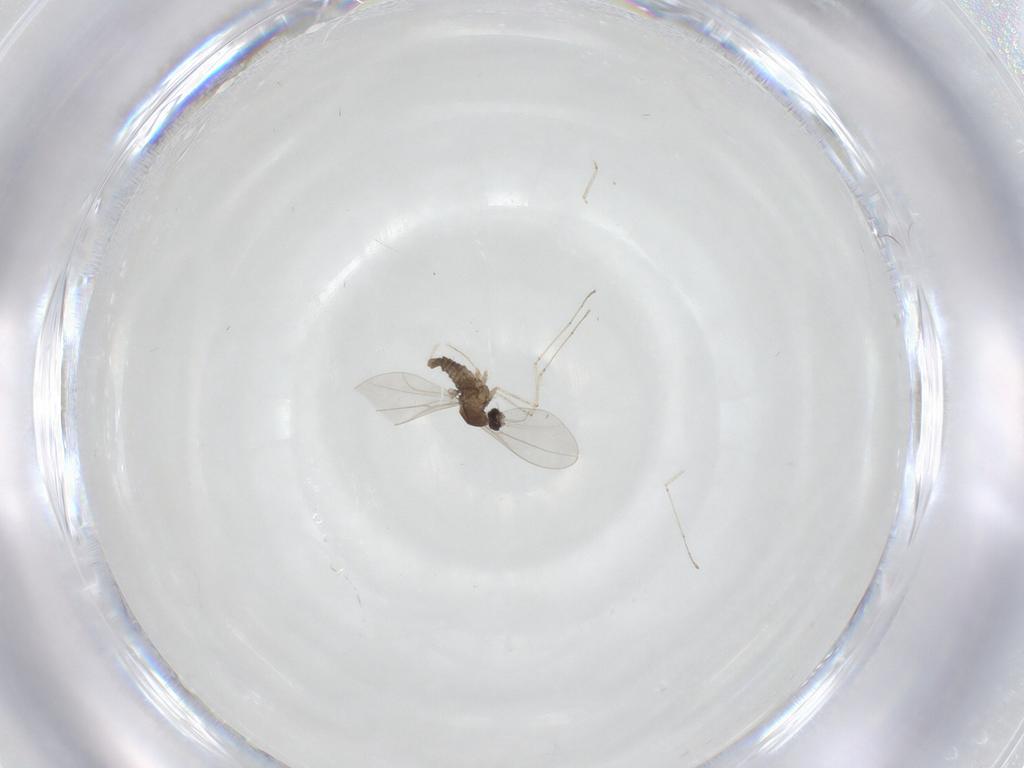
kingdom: Animalia
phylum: Arthropoda
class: Insecta
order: Diptera
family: Cecidomyiidae
